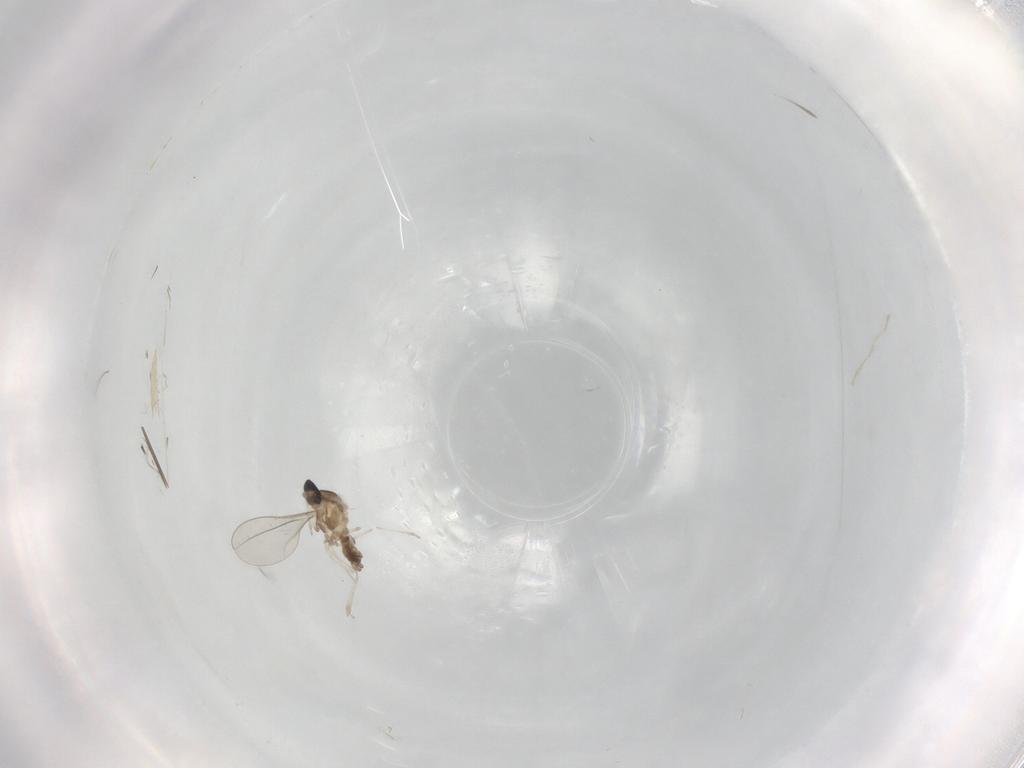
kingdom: Animalia
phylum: Arthropoda
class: Insecta
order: Diptera
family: Cecidomyiidae
